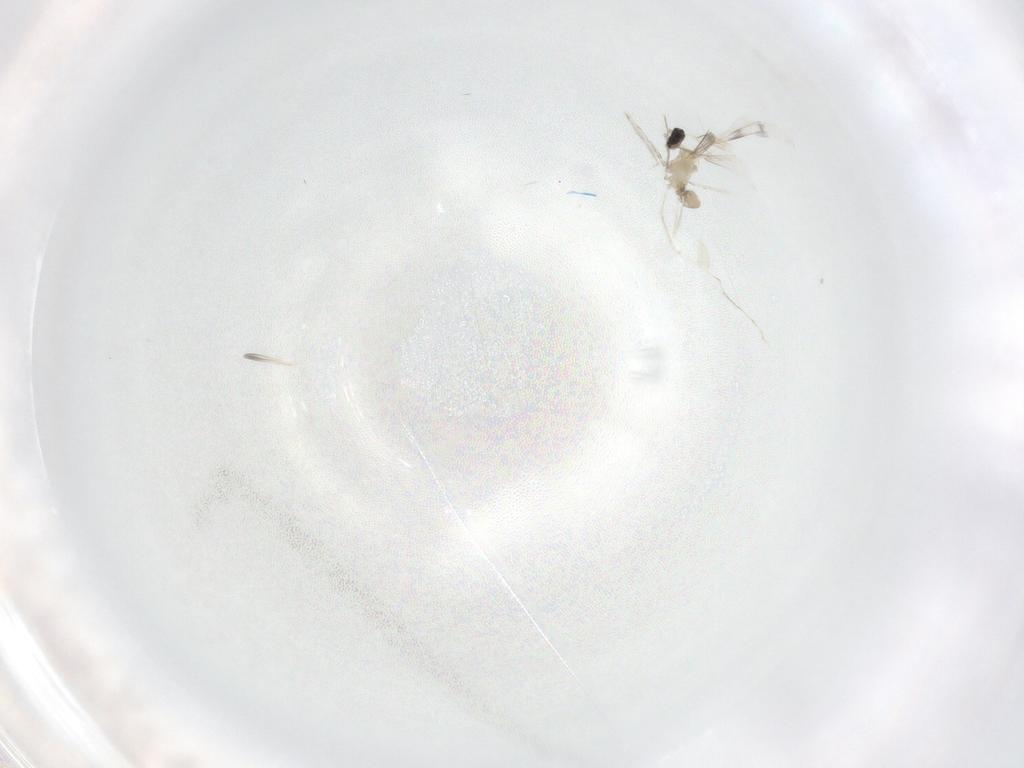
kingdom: Animalia
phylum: Arthropoda
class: Insecta
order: Diptera
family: Cecidomyiidae
